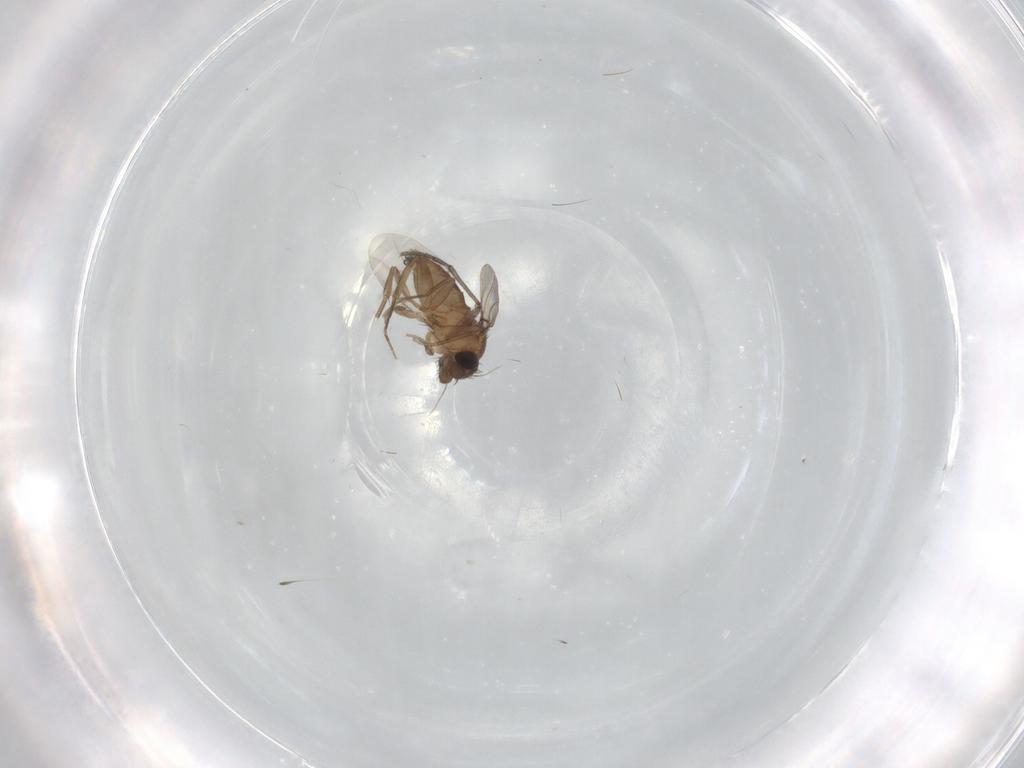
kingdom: Animalia
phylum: Arthropoda
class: Insecta
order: Diptera
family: Phoridae
